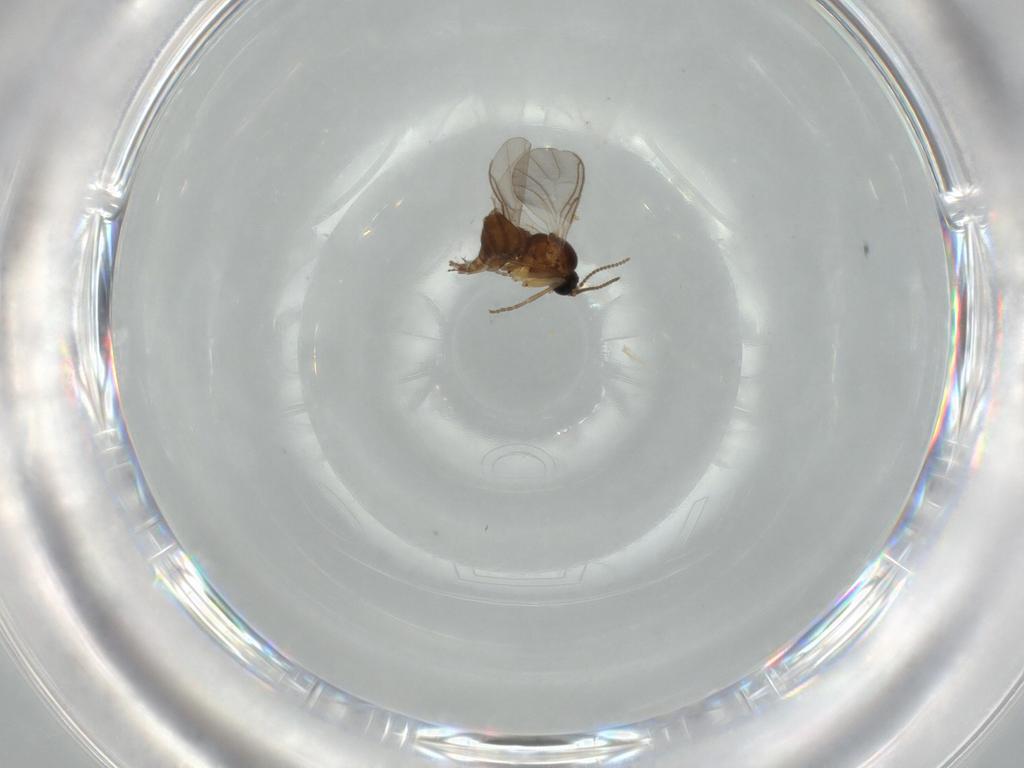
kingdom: Animalia
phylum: Arthropoda
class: Insecta
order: Diptera
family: Sciaridae
